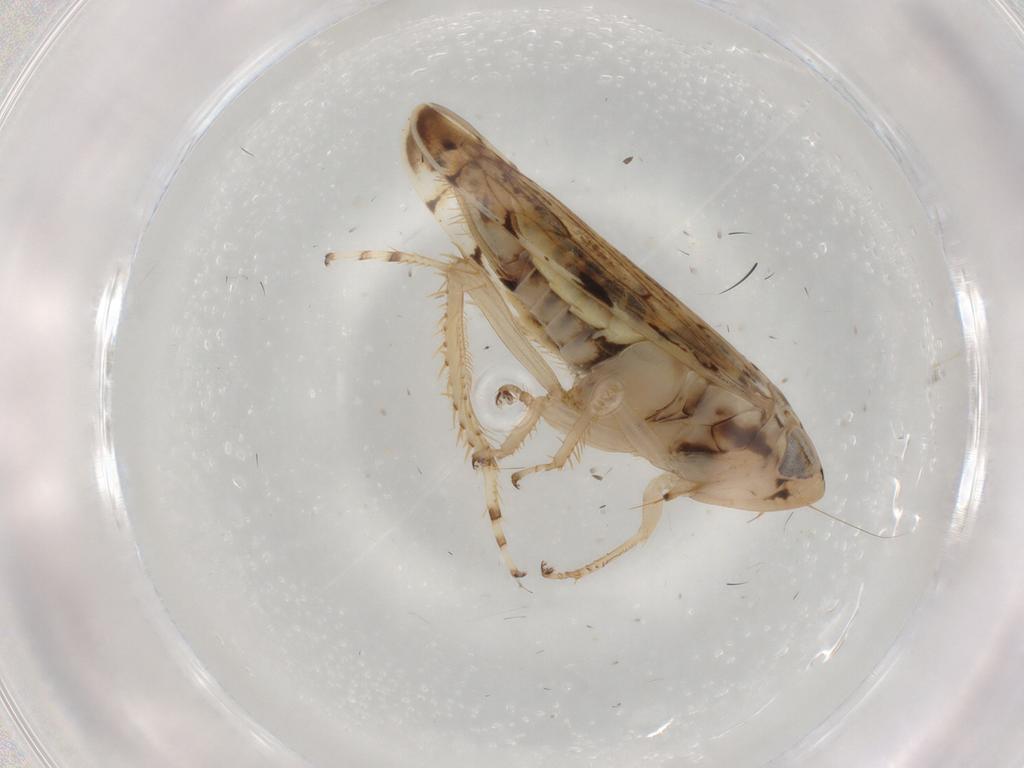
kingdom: Animalia
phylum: Arthropoda
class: Insecta
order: Hemiptera
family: Cicadellidae
